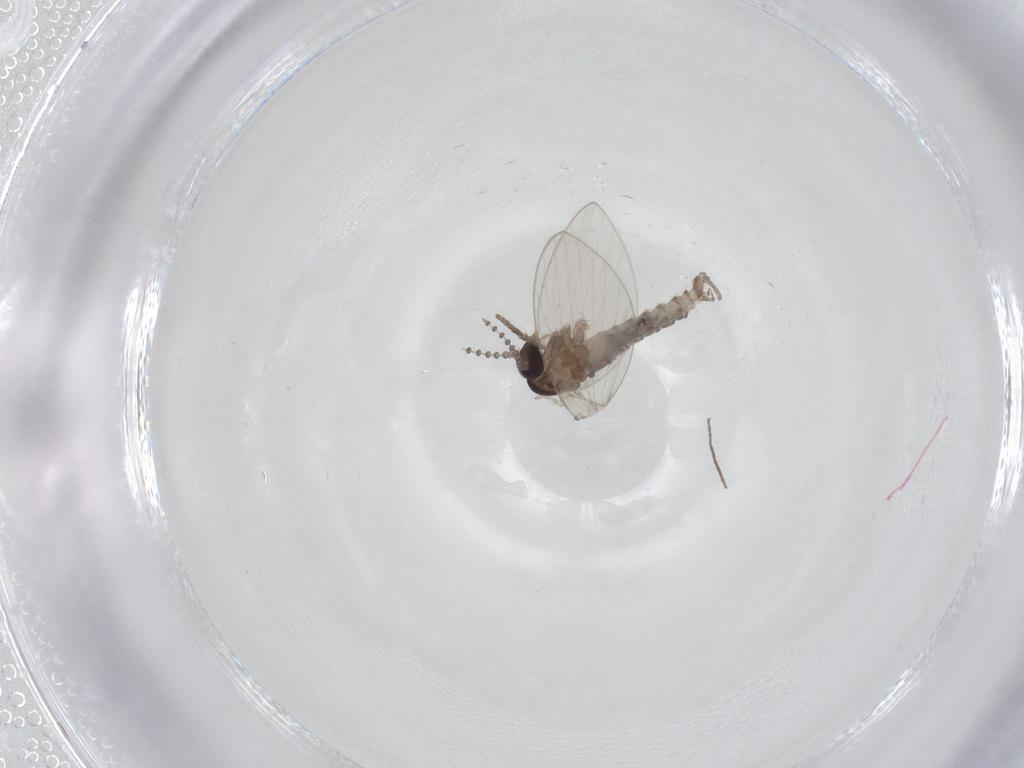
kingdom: Animalia
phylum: Arthropoda
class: Insecta
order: Diptera
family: Psychodidae
